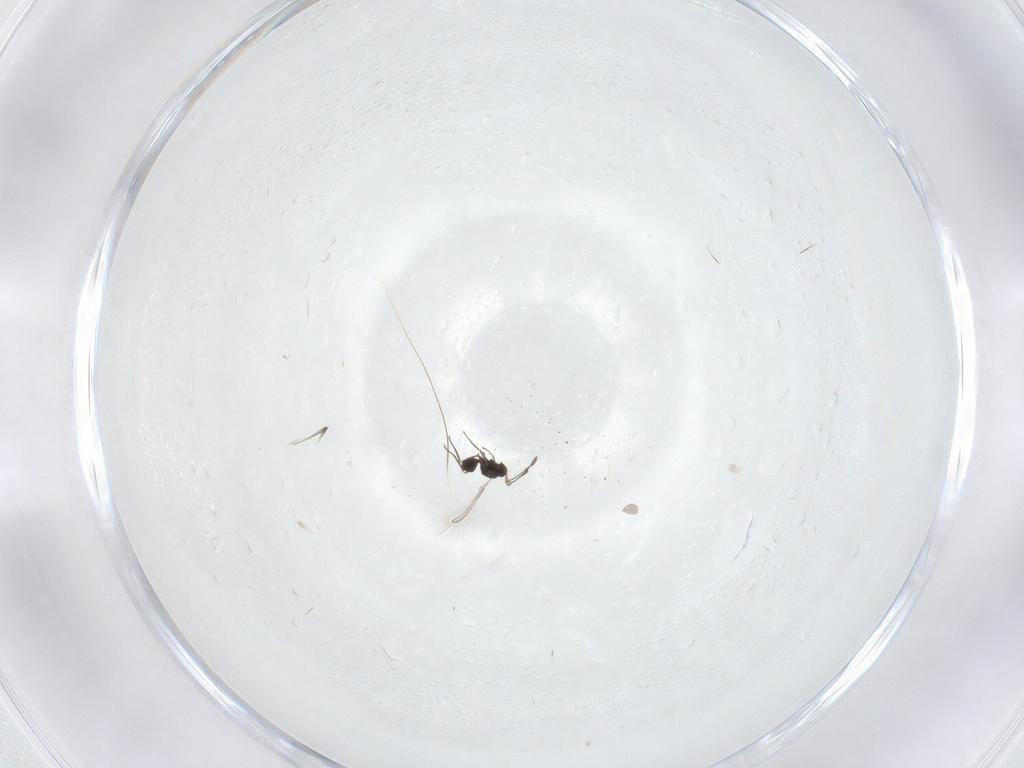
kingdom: Animalia
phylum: Arthropoda
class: Insecta
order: Hymenoptera
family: Mymaridae
